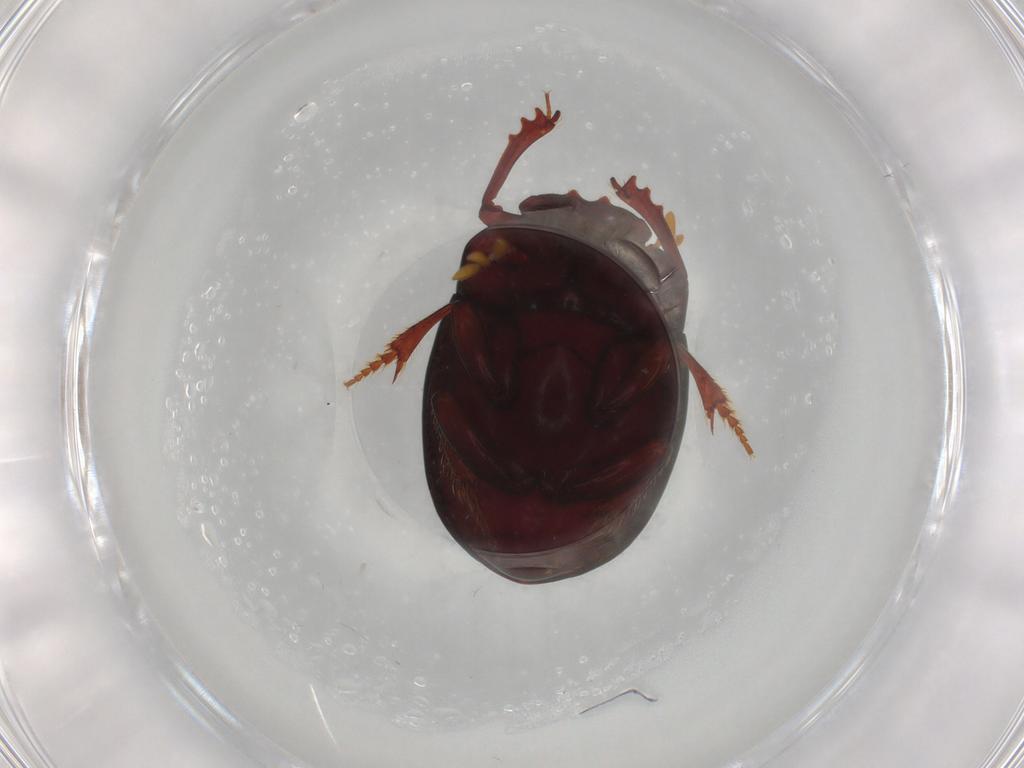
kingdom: Animalia
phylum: Arthropoda
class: Insecta
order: Coleoptera
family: Scarabaeidae
